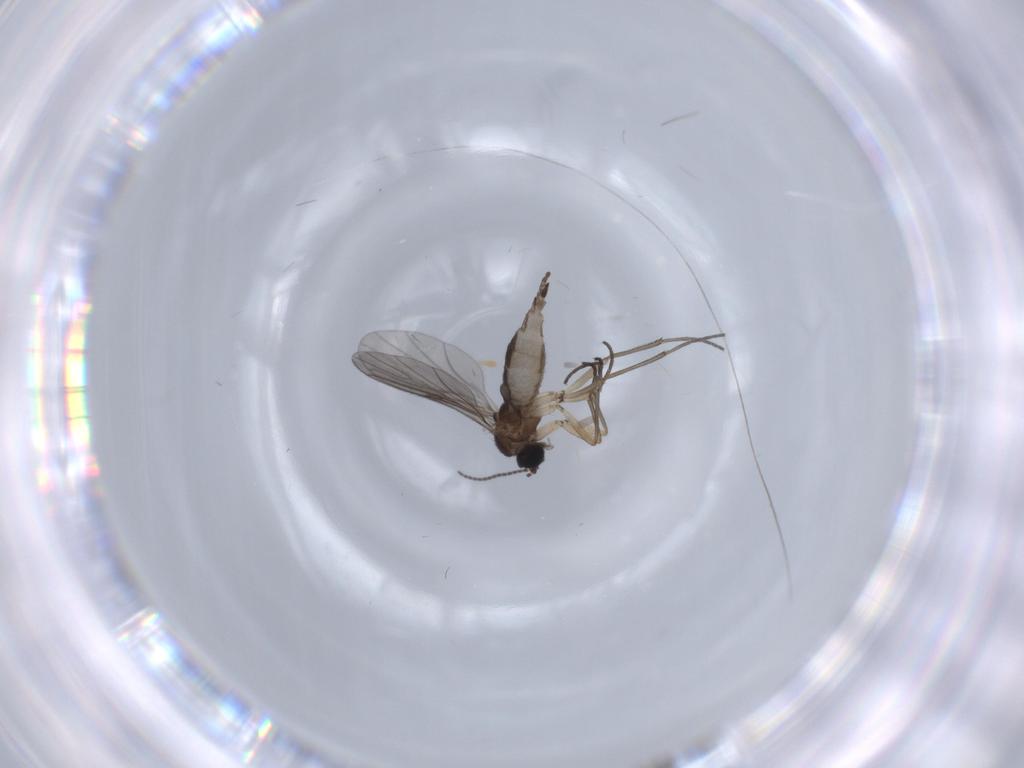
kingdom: Animalia
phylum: Arthropoda
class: Insecta
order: Diptera
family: Sciaridae
